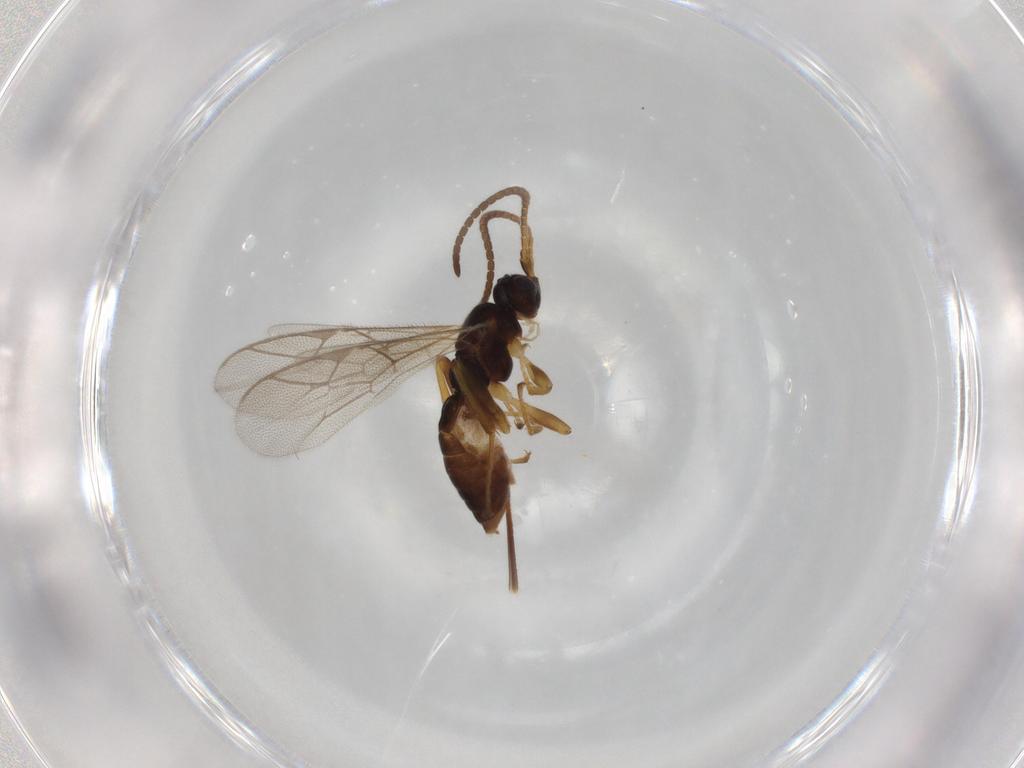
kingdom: Animalia
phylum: Arthropoda
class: Insecta
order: Hymenoptera
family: Ichneumonidae
